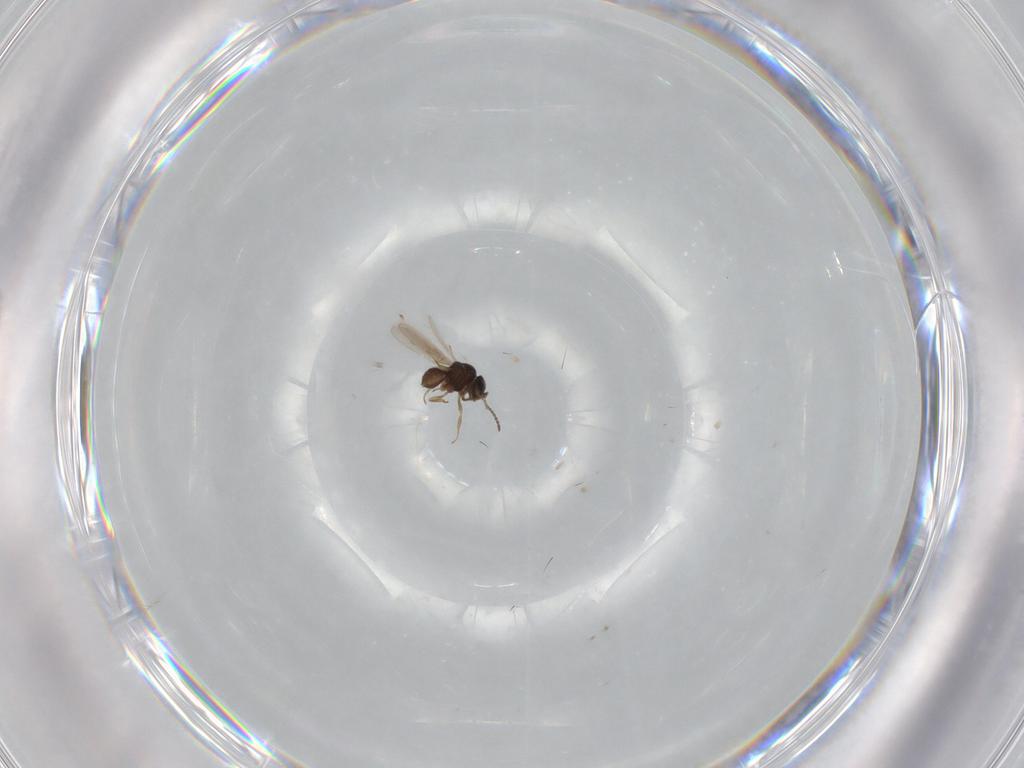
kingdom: Animalia
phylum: Arthropoda
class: Insecta
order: Hymenoptera
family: Scelionidae
